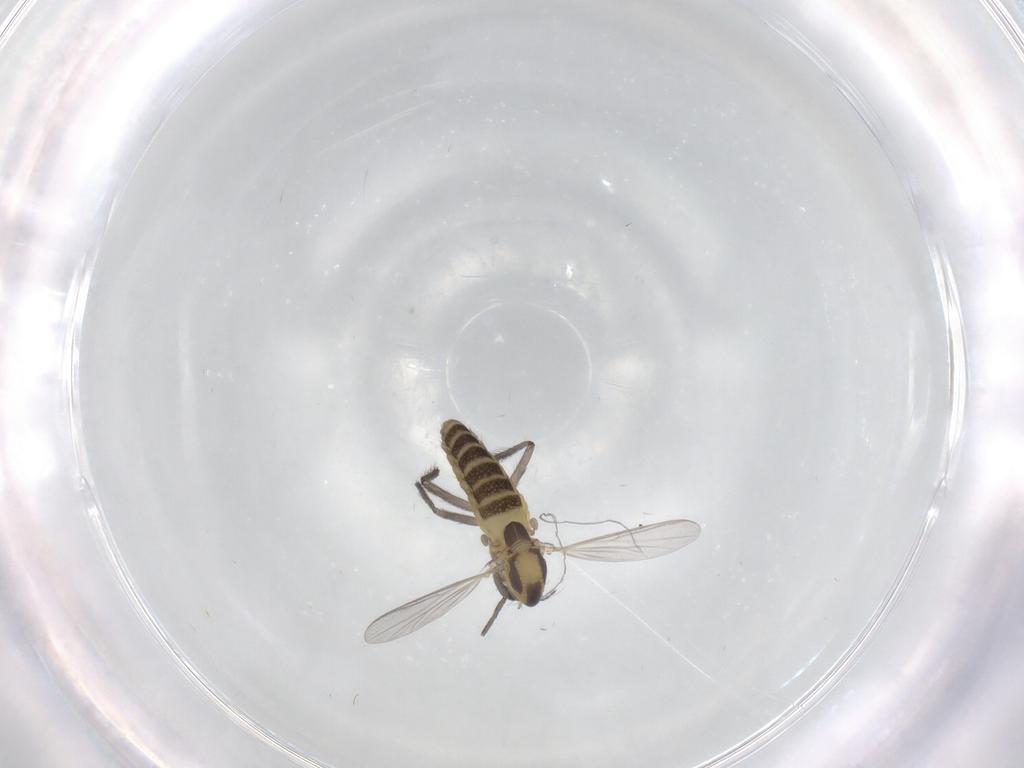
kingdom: Animalia
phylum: Arthropoda
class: Insecta
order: Diptera
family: Chironomidae
